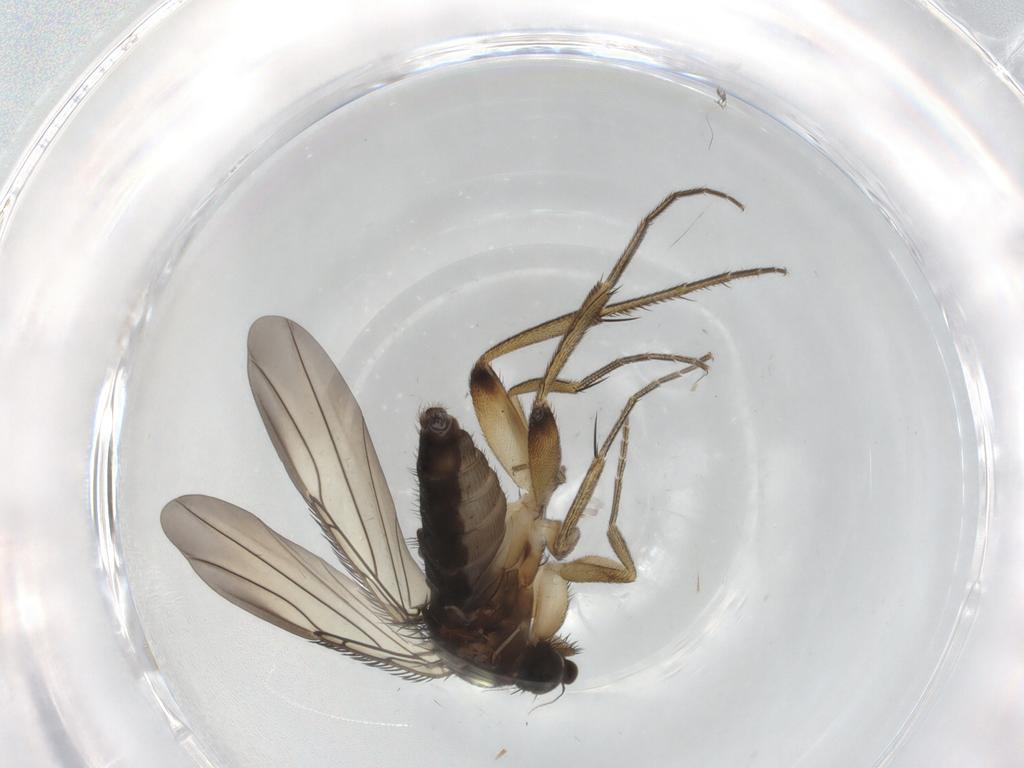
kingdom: Animalia
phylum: Arthropoda
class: Insecta
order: Diptera
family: Phoridae
